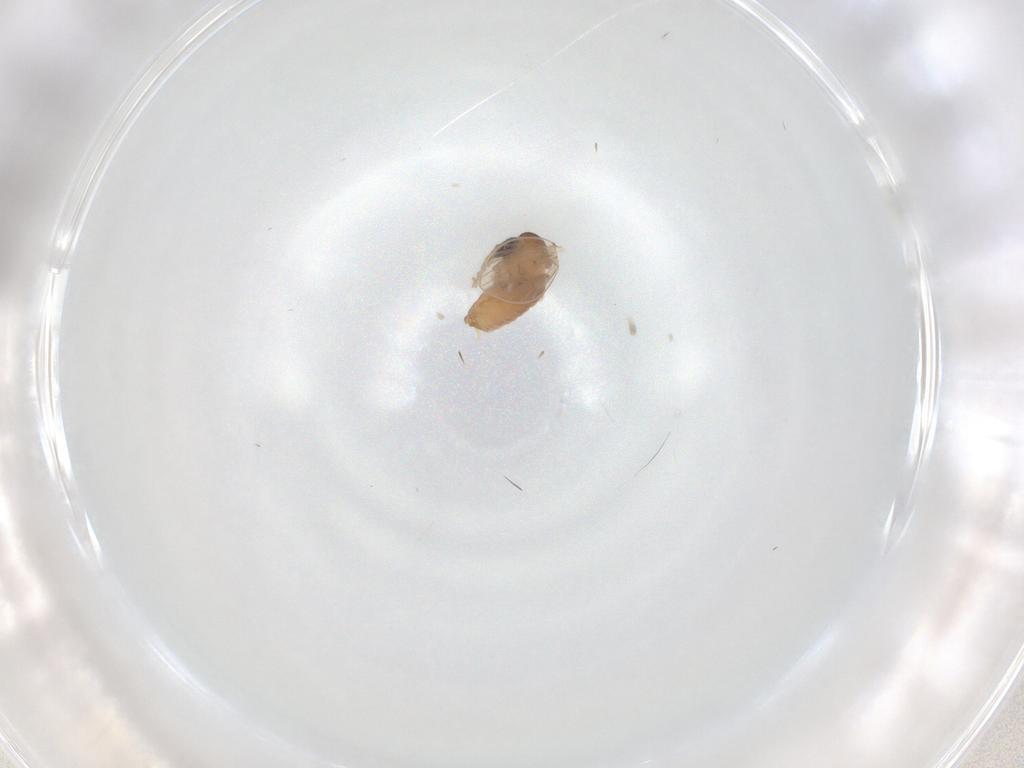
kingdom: Animalia
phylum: Arthropoda
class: Insecta
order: Diptera
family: Psychodidae
